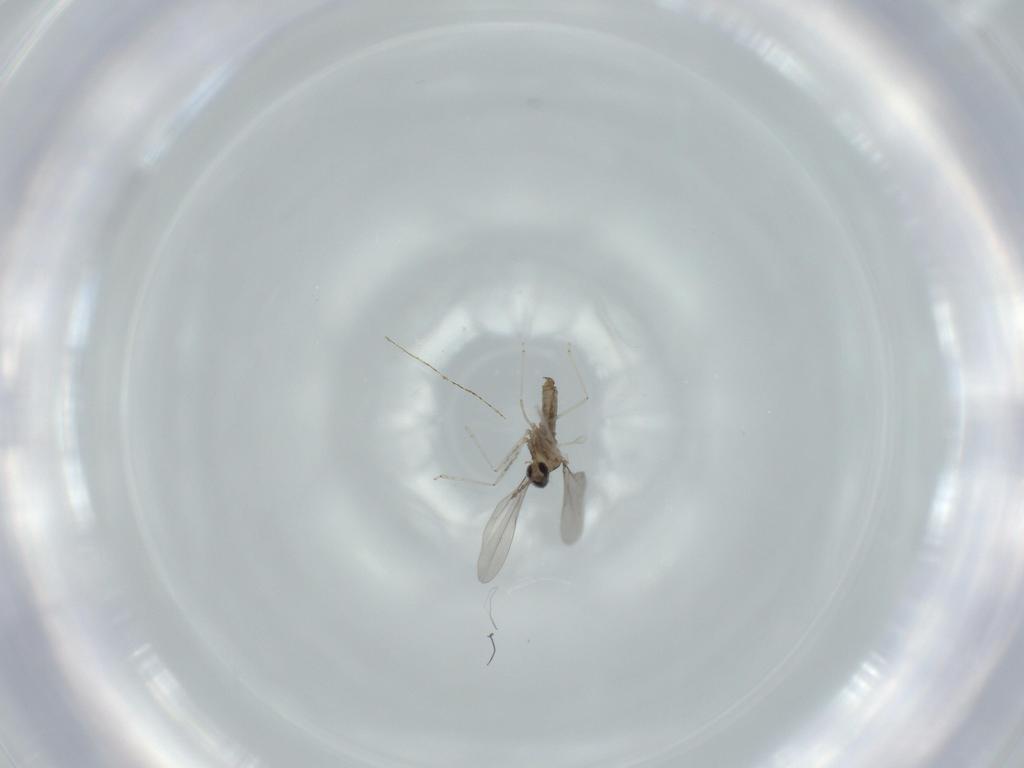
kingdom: Animalia
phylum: Arthropoda
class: Insecta
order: Diptera
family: Cecidomyiidae
